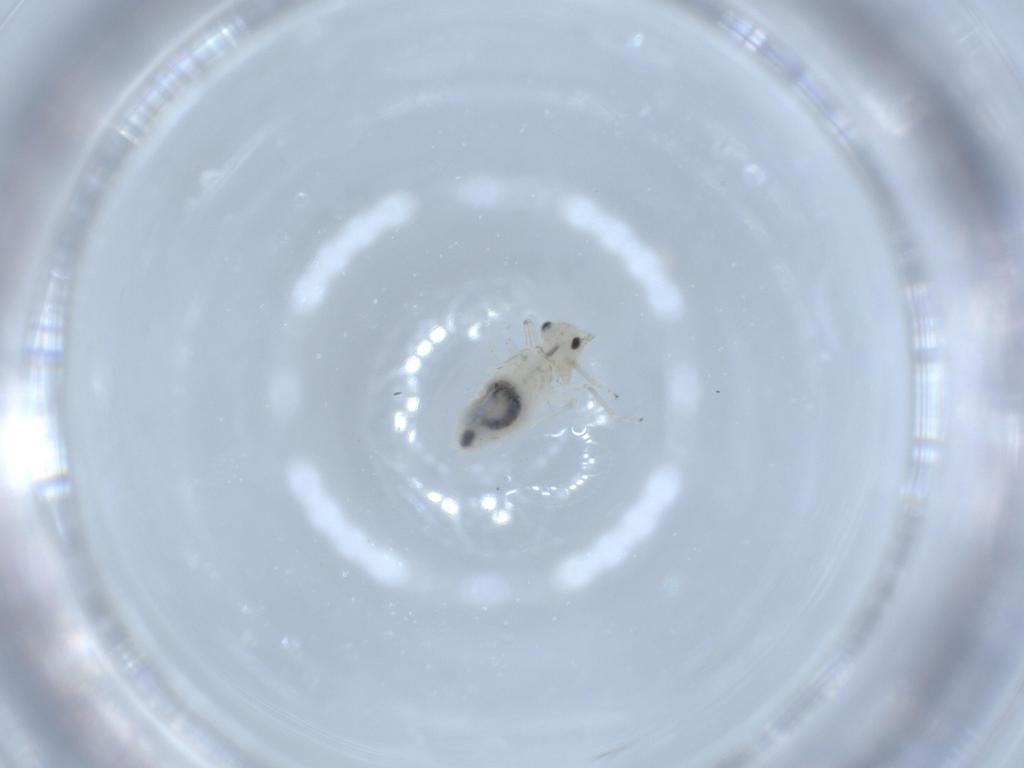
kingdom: Animalia
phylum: Arthropoda
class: Insecta
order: Psocodea
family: Caeciliusidae
